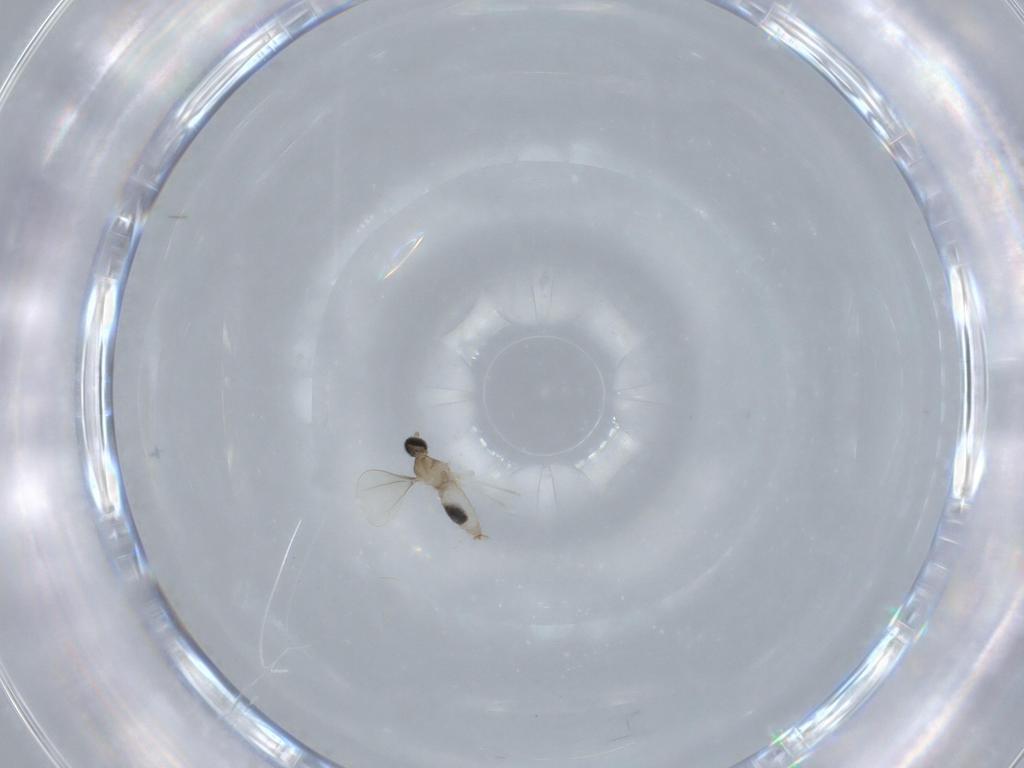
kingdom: Animalia
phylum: Arthropoda
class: Insecta
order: Diptera
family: Cecidomyiidae
